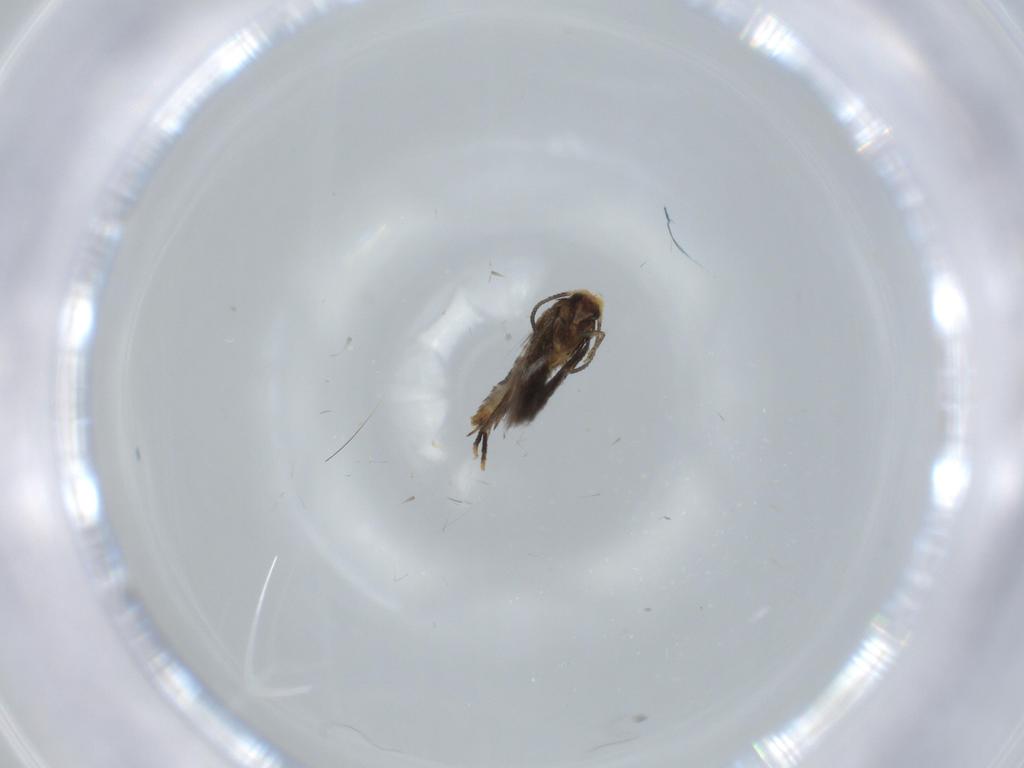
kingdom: Animalia
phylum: Arthropoda
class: Insecta
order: Lepidoptera
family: Nepticulidae
